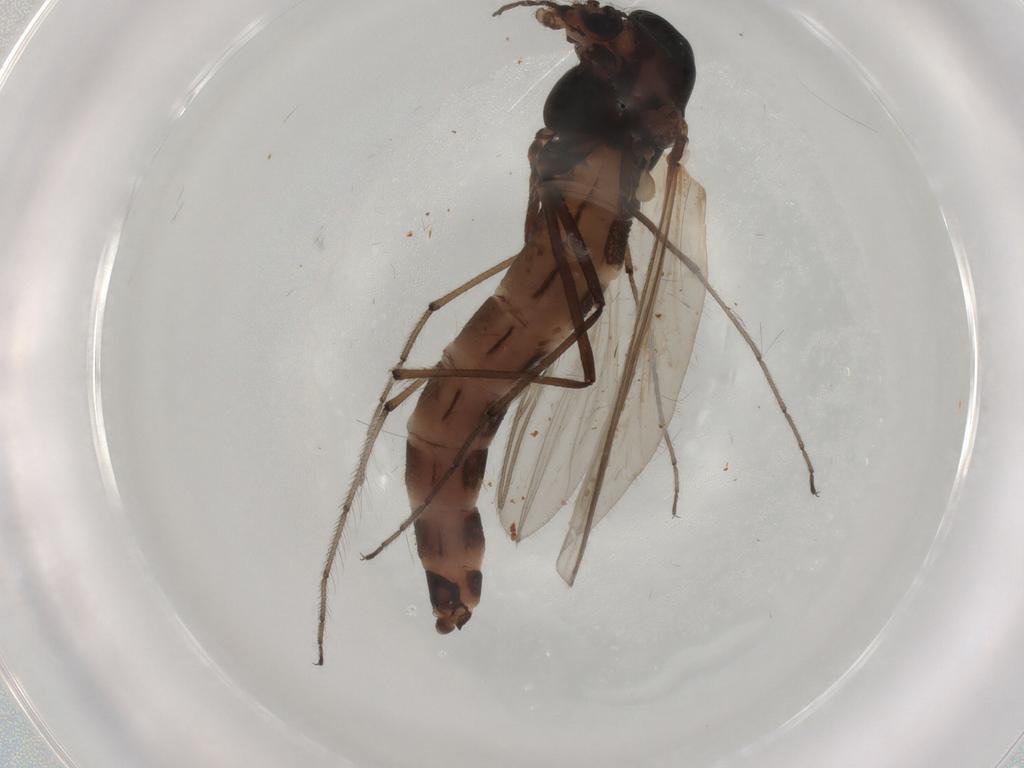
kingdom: Animalia
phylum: Arthropoda
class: Insecta
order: Diptera
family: Chironomidae
